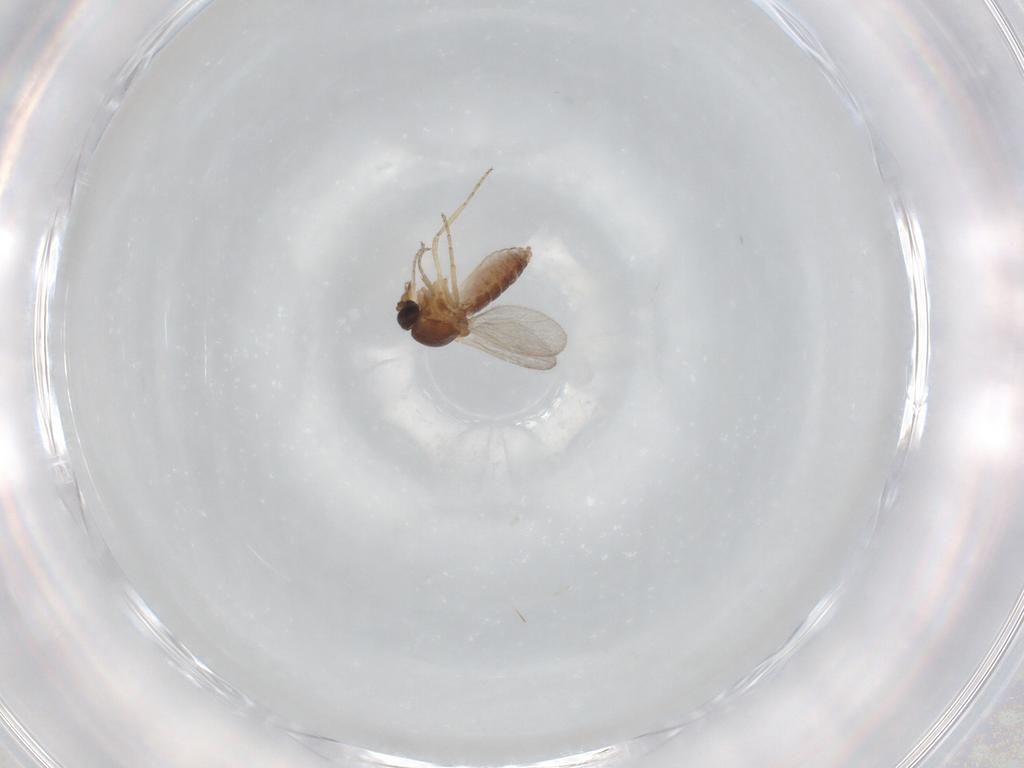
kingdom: Animalia
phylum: Arthropoda
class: Insecta
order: Diptera
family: Ceratopogonidae
